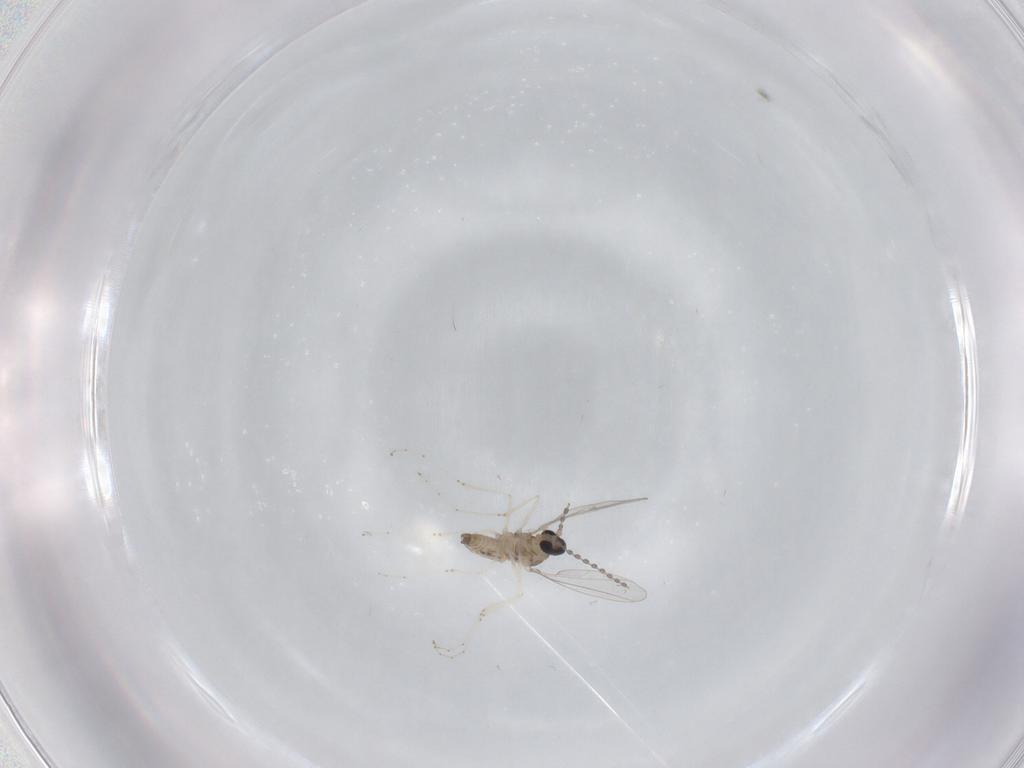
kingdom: Animalia
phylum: Arthropoda
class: Insecta
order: Diptera
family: Cecidomyiidae
